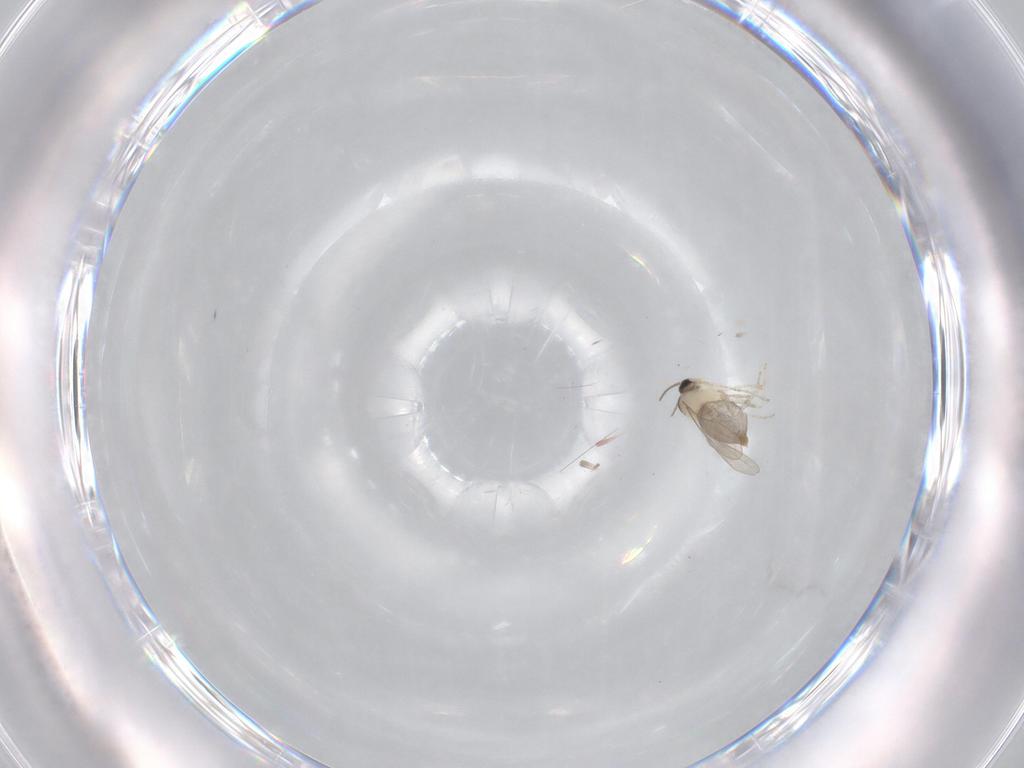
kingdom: Animalia
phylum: Arthropoda
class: Insecta
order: Diptera
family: Cecidomyiidae
